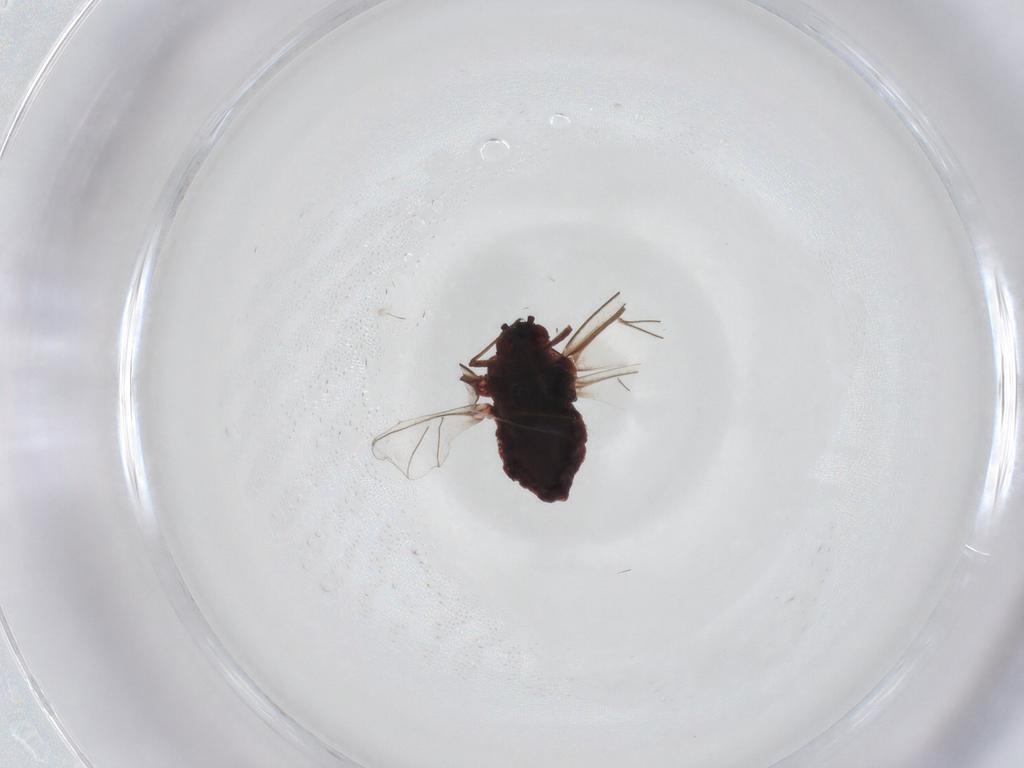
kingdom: Animalia
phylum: Arthropoda
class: Insecta
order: Hemiptera
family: Aphididae
